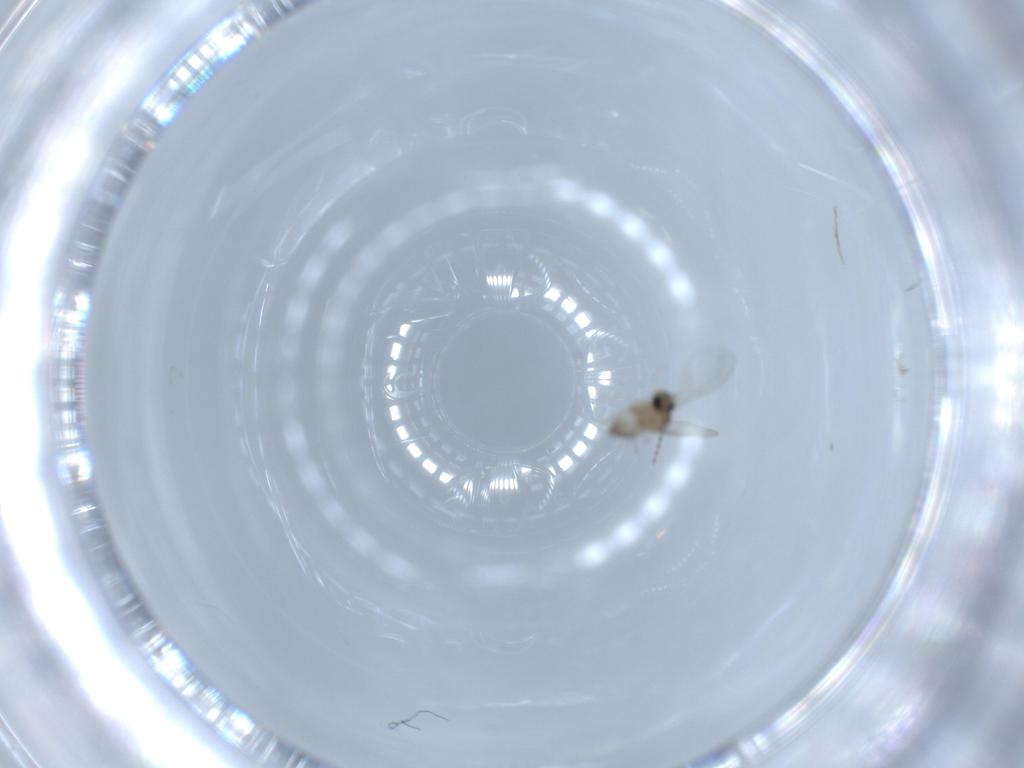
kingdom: Animalia
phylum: Arthropoda
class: Insecta
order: Diptera
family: Cecidomyiidae
